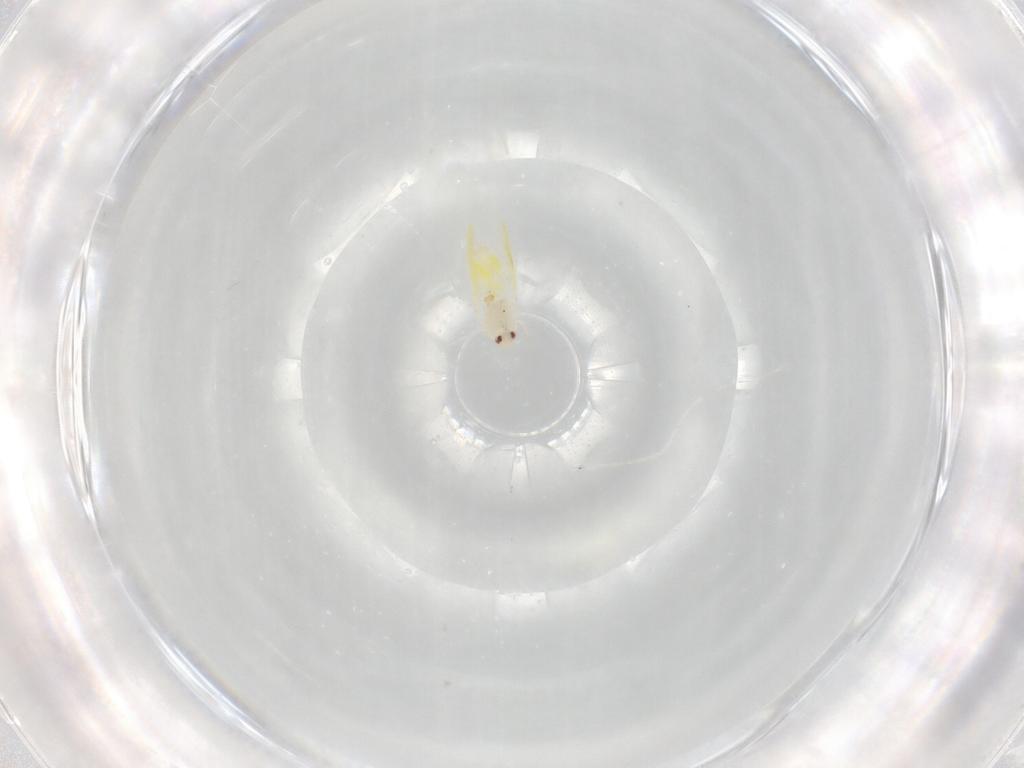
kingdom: Animalia
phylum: Arthropoda
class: Insecta
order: Hemiptera
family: Aleyrodidae
